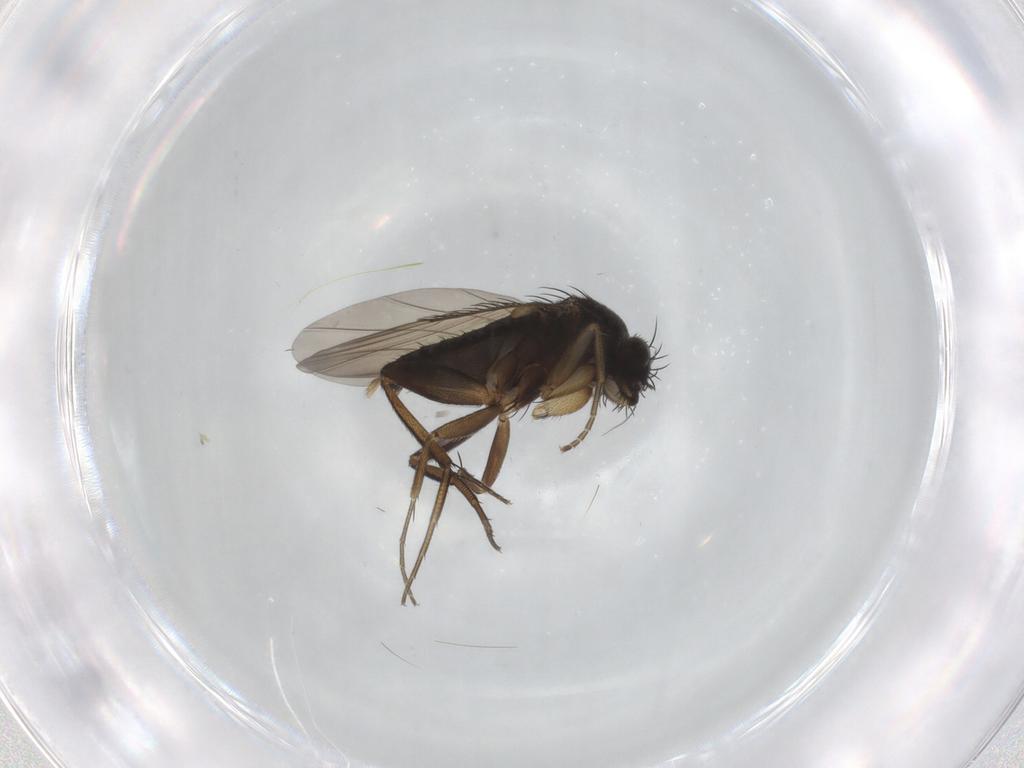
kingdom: Animalia
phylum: Arthropoda
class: Insecta
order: Diptera
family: Phoridae
